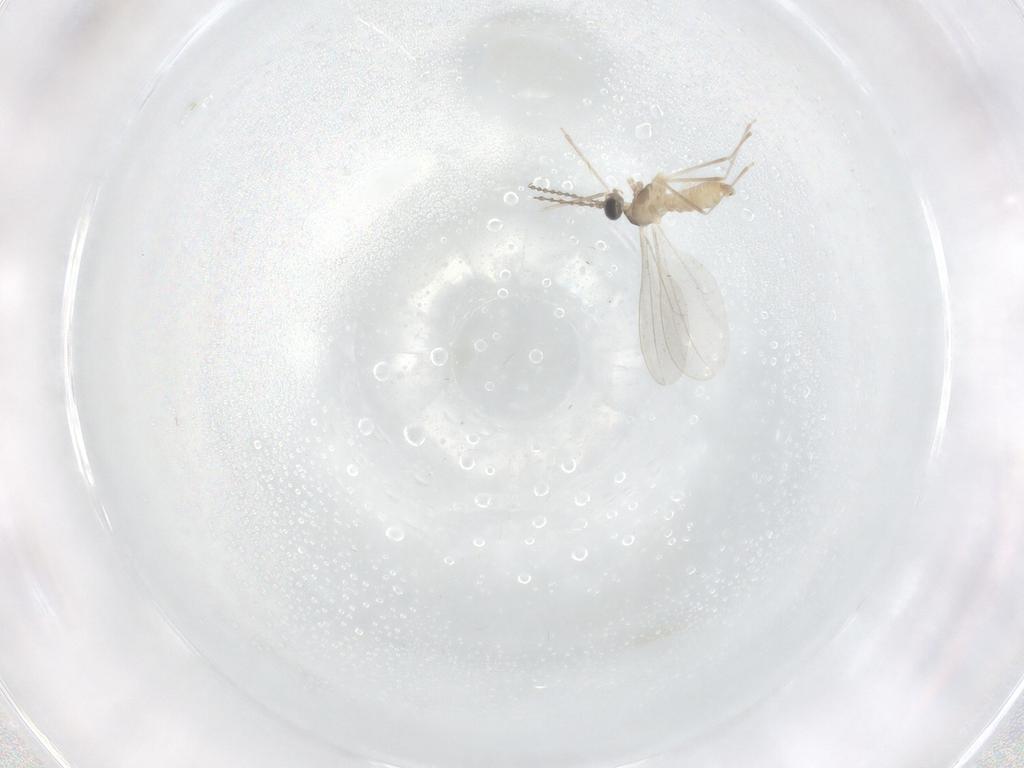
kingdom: Animalia
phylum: Arthropoda
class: Insecta
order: Diptera
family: Cecidomyiidae
